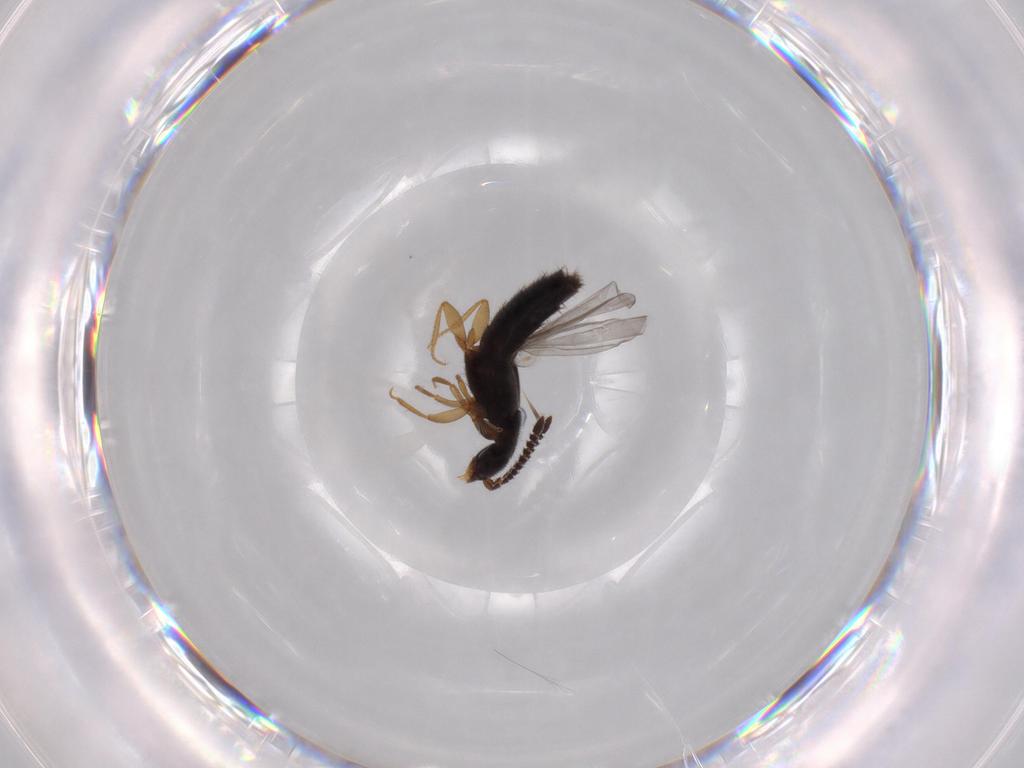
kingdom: Animalia
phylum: Arthropoda
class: Insecta
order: Coleoptera
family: Staphylinidae
